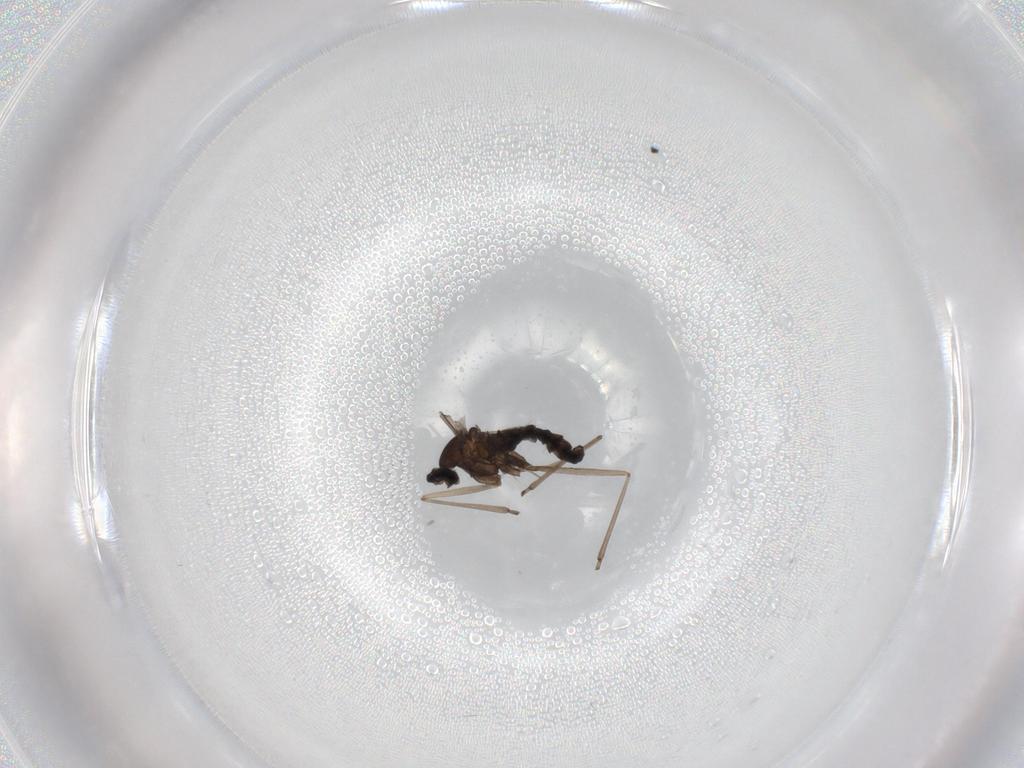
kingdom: Animalia
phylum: Arthropoda
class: Insecta
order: Diptera
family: Cecidomyiidae
